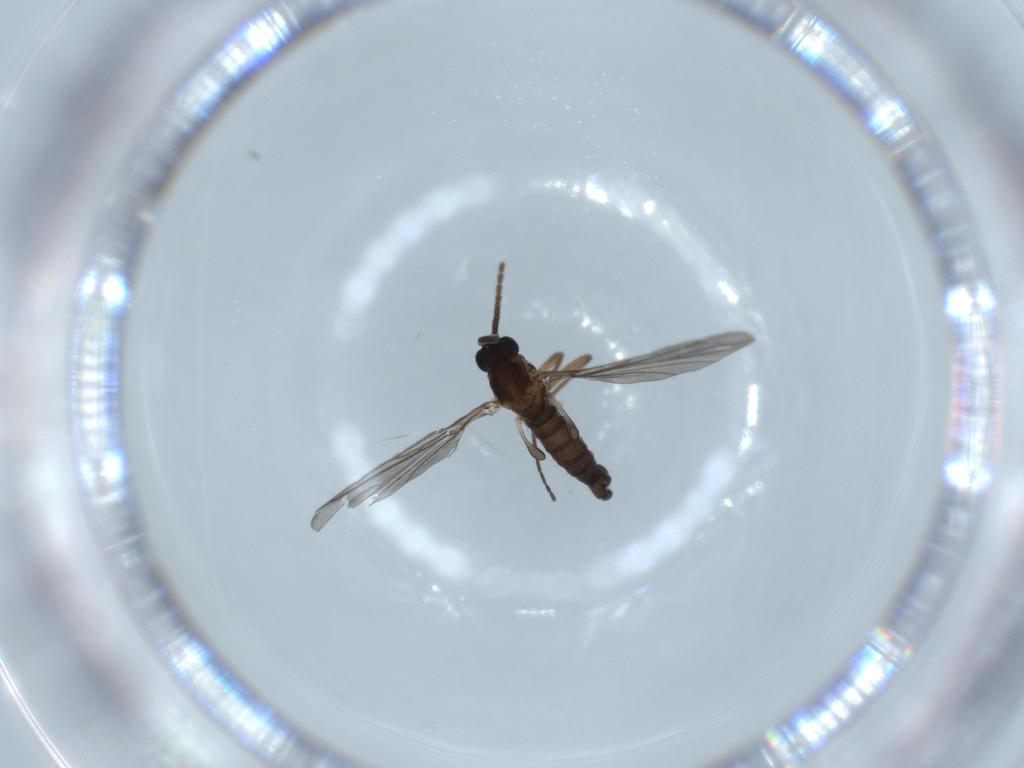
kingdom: Animalia
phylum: Arthropoda
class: Insecta
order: Diptera
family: Sciaridae
